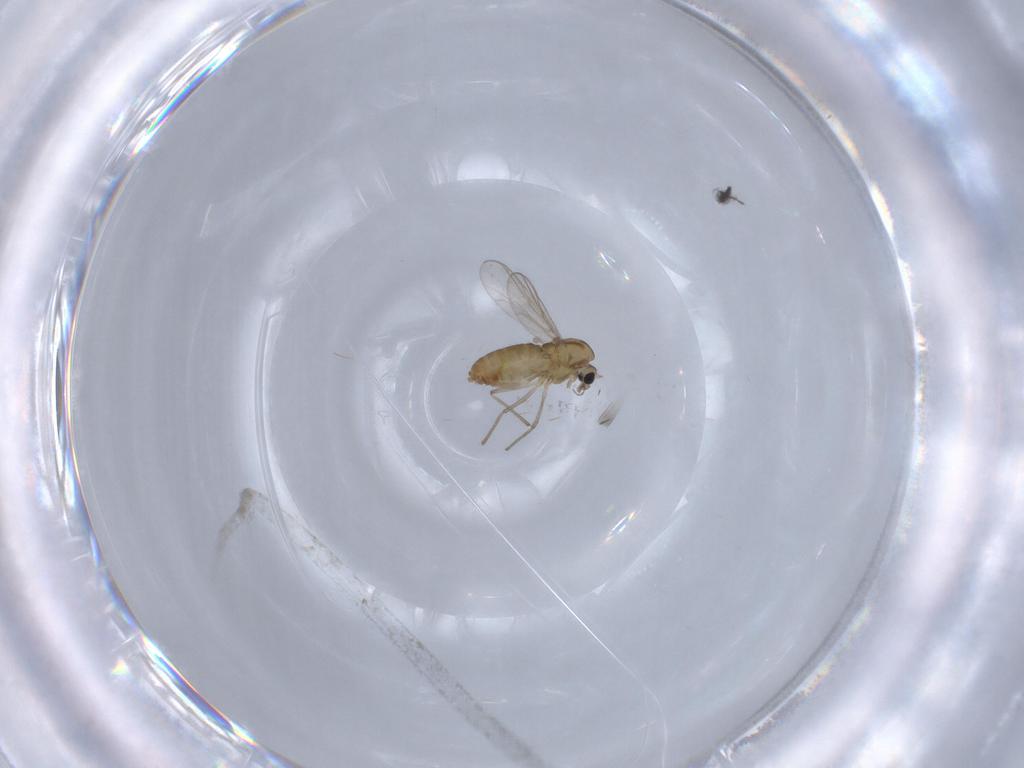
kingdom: Animalia
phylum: Arthropoda
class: Insecta
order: Diptera
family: Chironomidae
